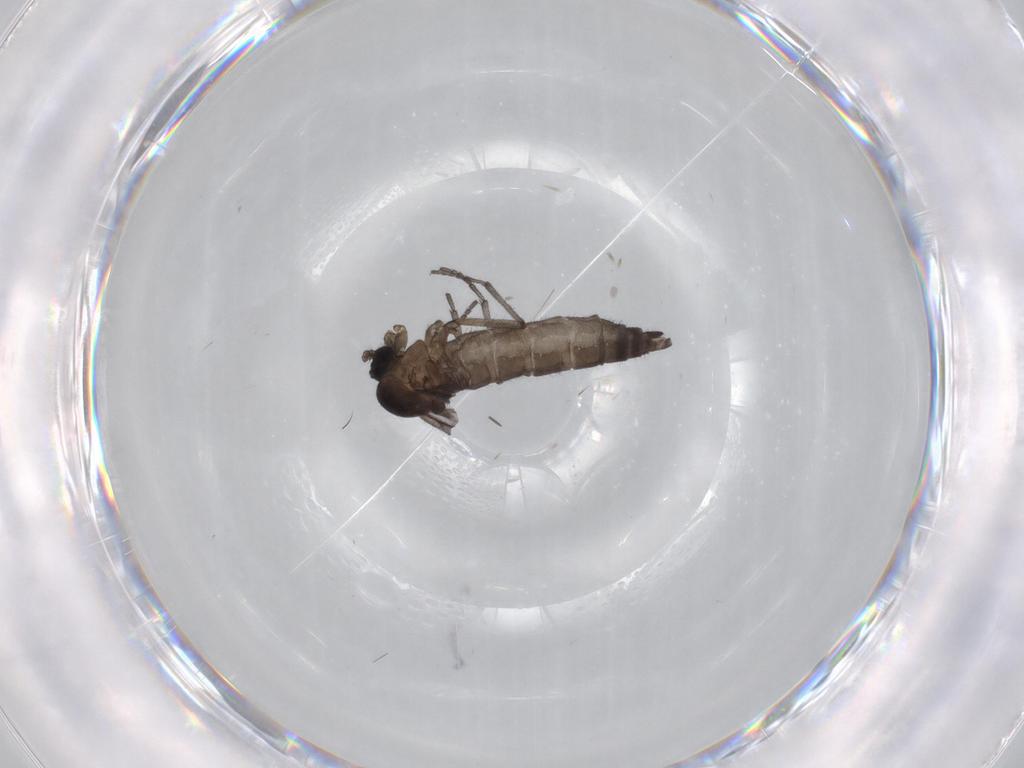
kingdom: Animalia
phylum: Arthropoda
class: Insecta
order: Diptera
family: Sciaridae
